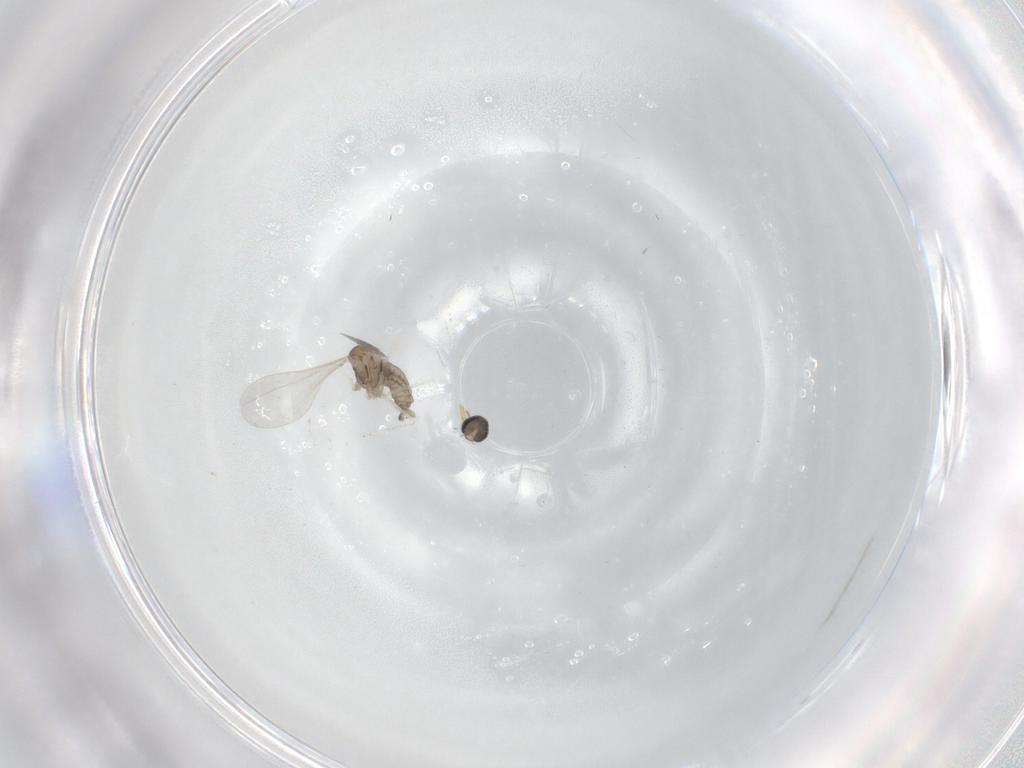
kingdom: Animalia
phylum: Arthropoda
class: Insecta
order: Diptera
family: Cecidomyiidae
